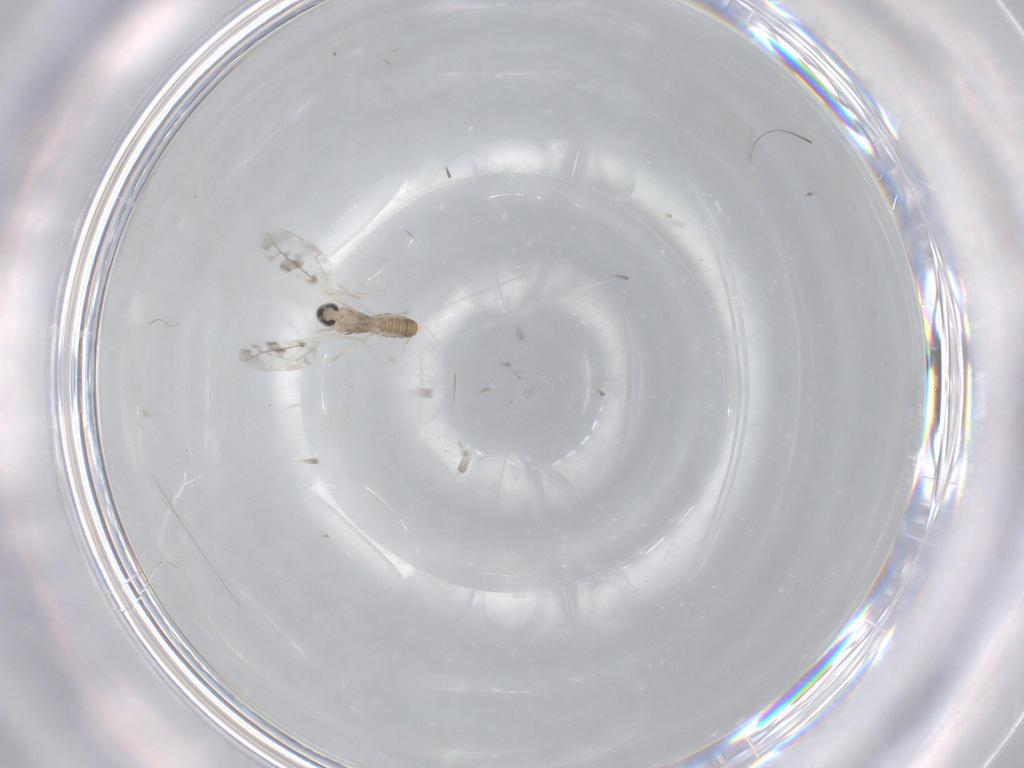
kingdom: Animalia
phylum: Arthropoda
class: Insecta
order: Diptera
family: Cecidomyiidae
